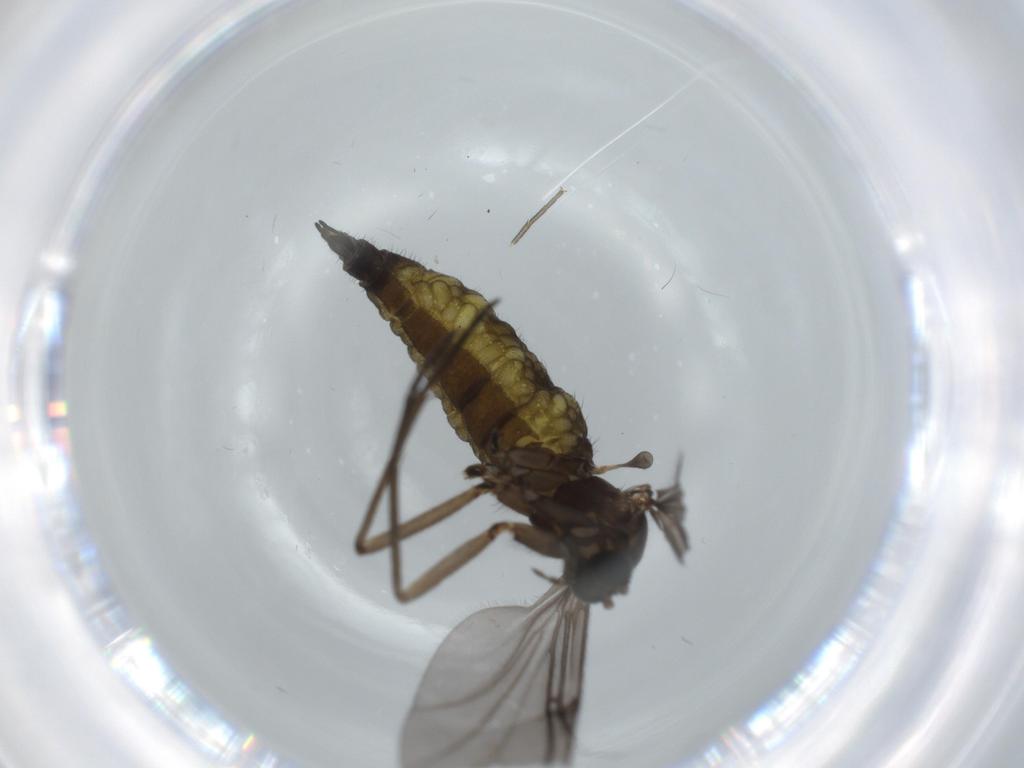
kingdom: Animalia
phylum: Arthropoda
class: Insecta
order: Diptera
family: Sciaridae
